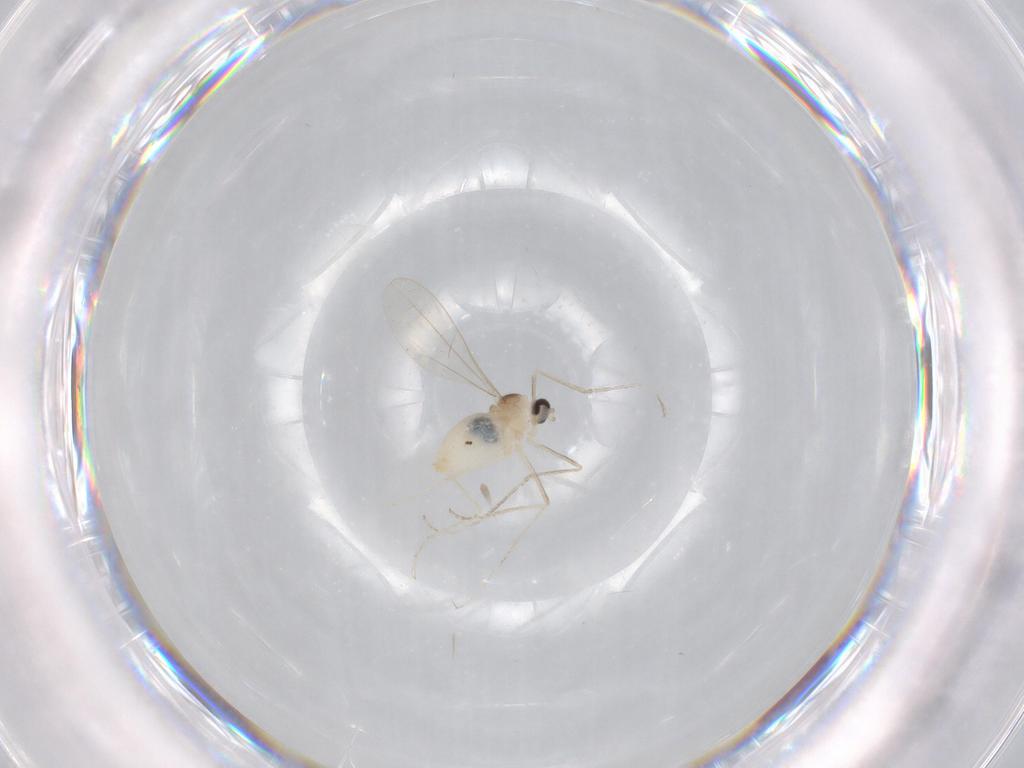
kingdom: Animalia
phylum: Arthropoda
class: Insecta
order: Diptera
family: Cecidomyiidae
